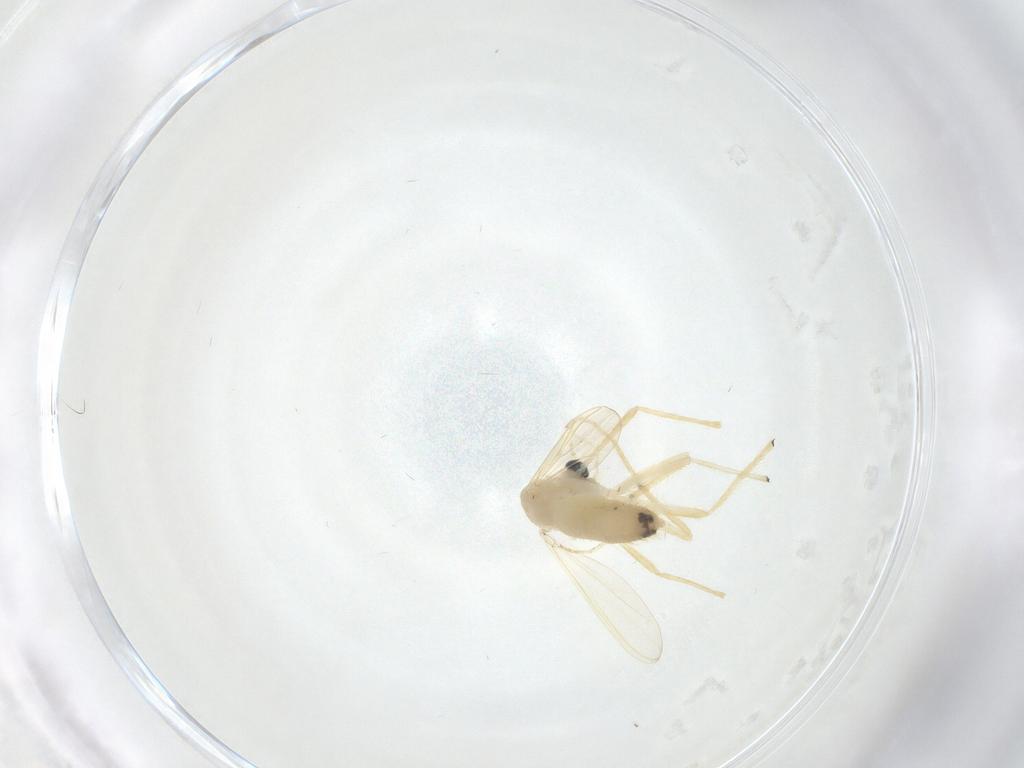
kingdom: Animalia
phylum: Arthropoda
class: Insecta
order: Diptera
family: Chironomidae
